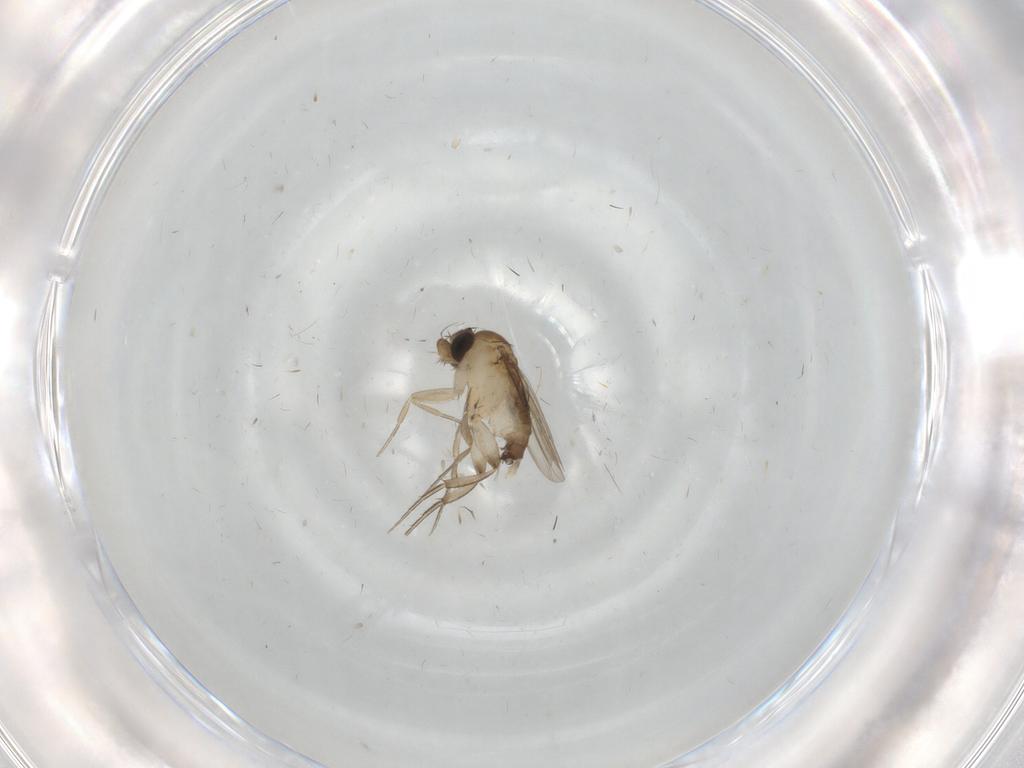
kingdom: Animalia
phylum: Arthropoda
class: Insecta
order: Diptera
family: Phoridae
